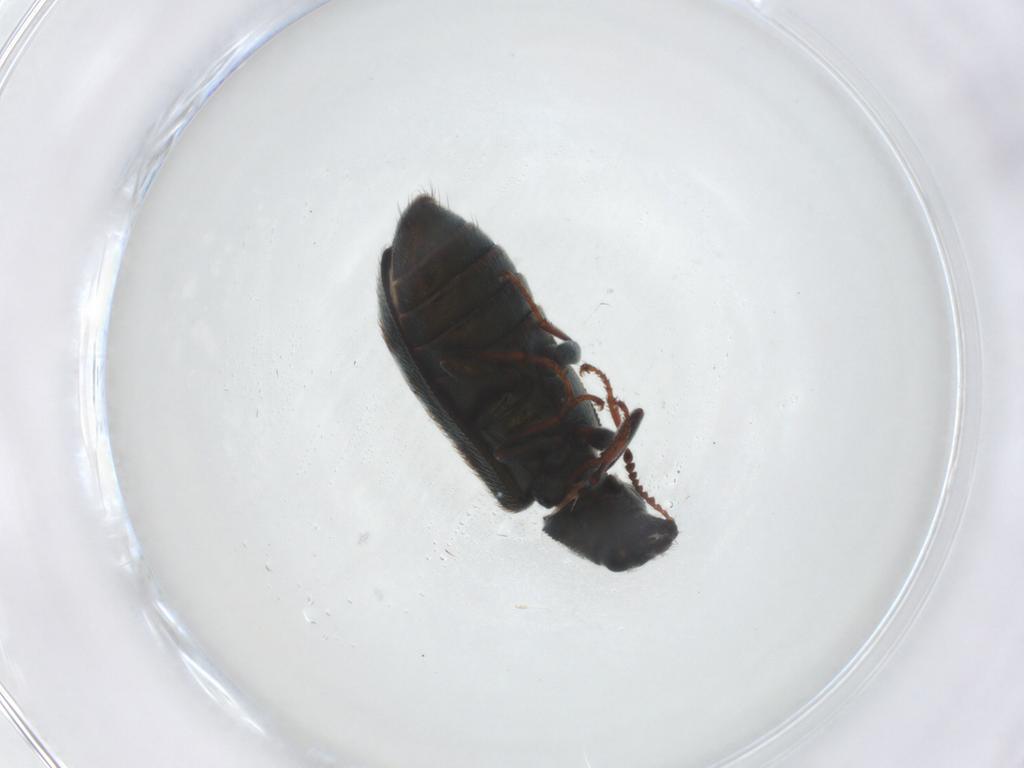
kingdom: Animalia
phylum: Arthropoda
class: Insecta
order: Coleoptera
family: Melyridae
